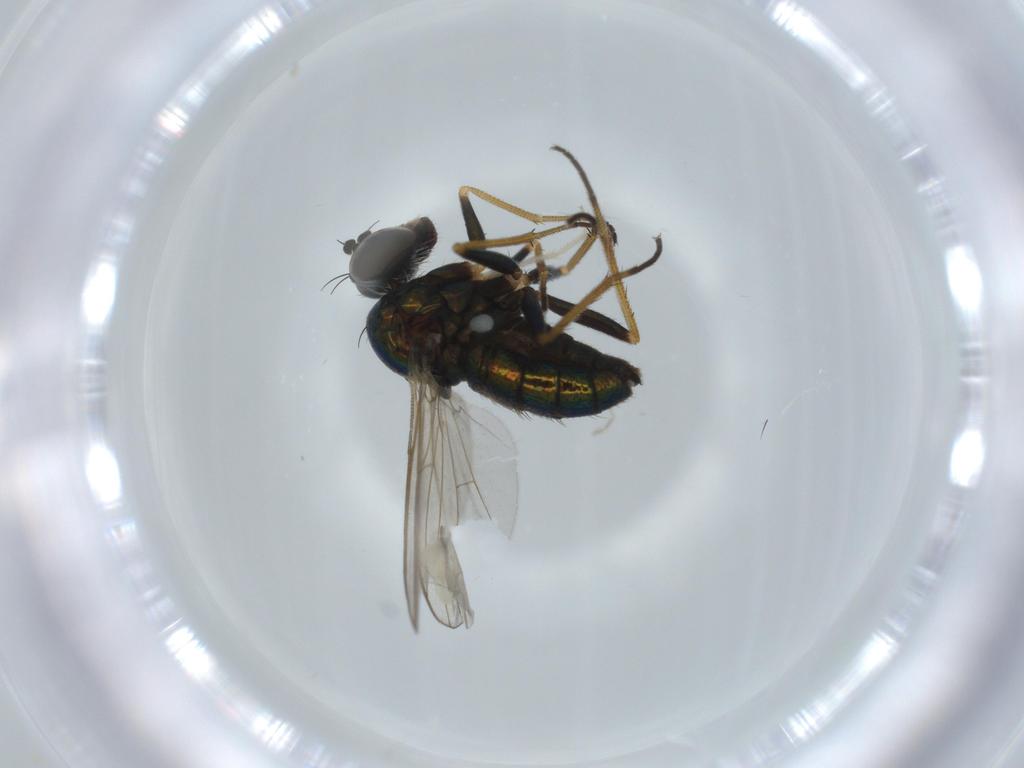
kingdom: Animalia
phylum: Arthropoda
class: Insecta
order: Diptera
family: Sciaridae
